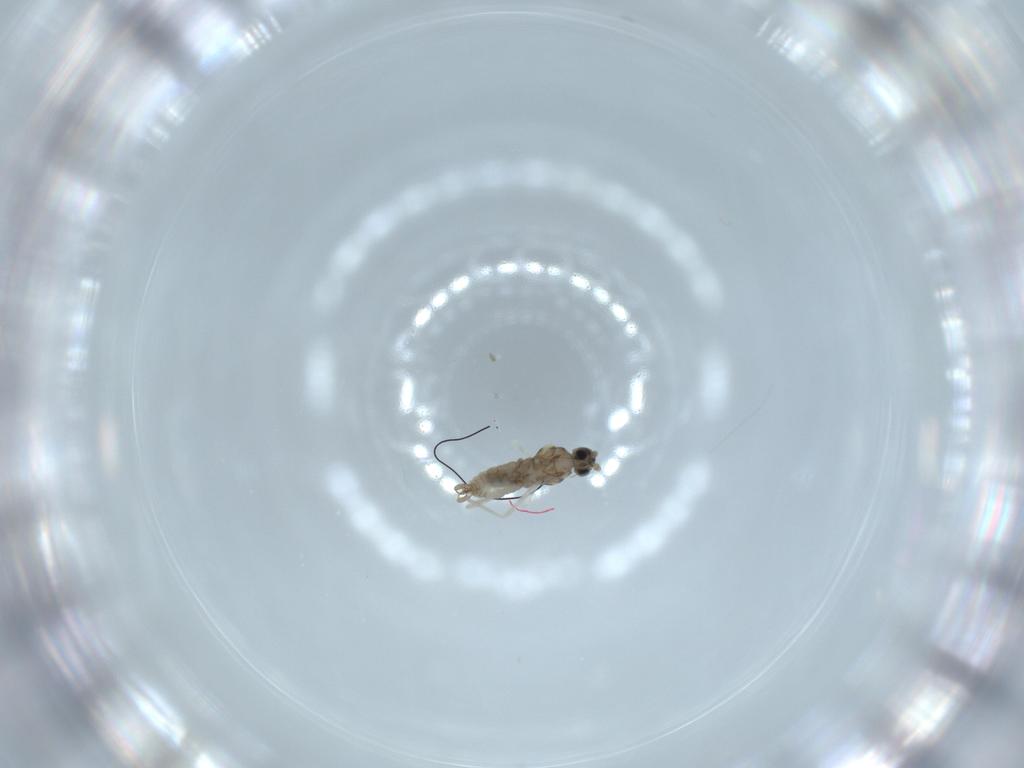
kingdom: Animalia
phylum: Arthropoda
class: Insecta
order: Diptera
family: Cecidomyiidae
